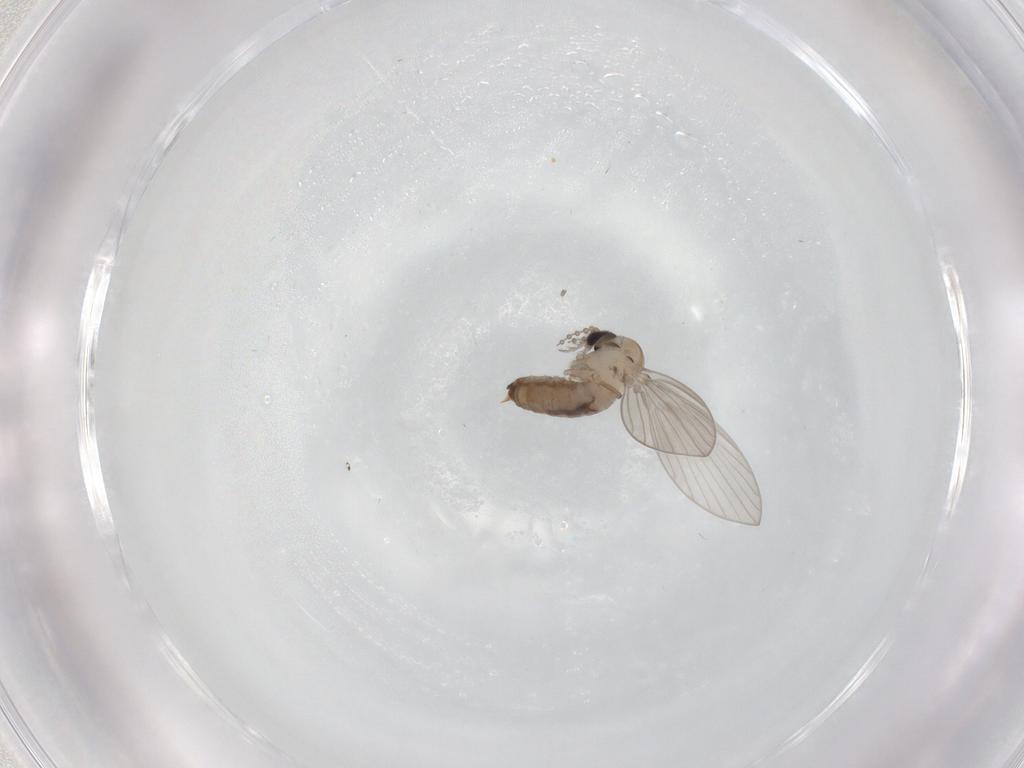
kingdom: Animalia
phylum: Arthropoda
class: Insecta
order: Diptera
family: Psychodidae
